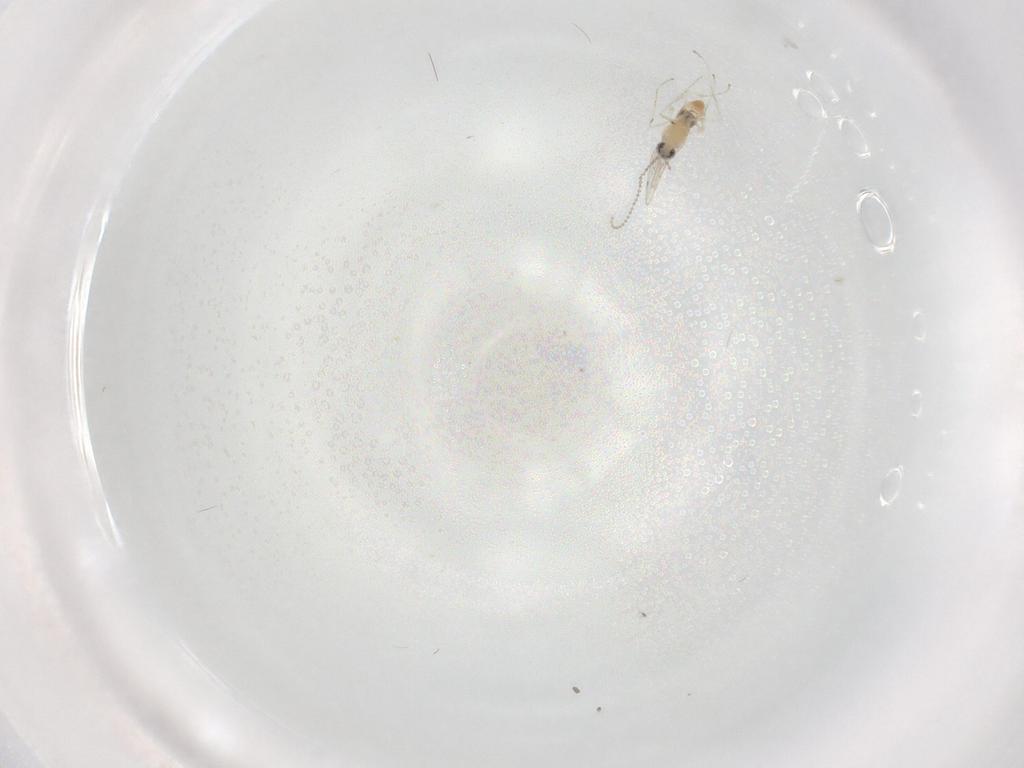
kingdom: Animalia
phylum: Arthropoda
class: Insecta
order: Diptera
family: Cecidomyiidae
